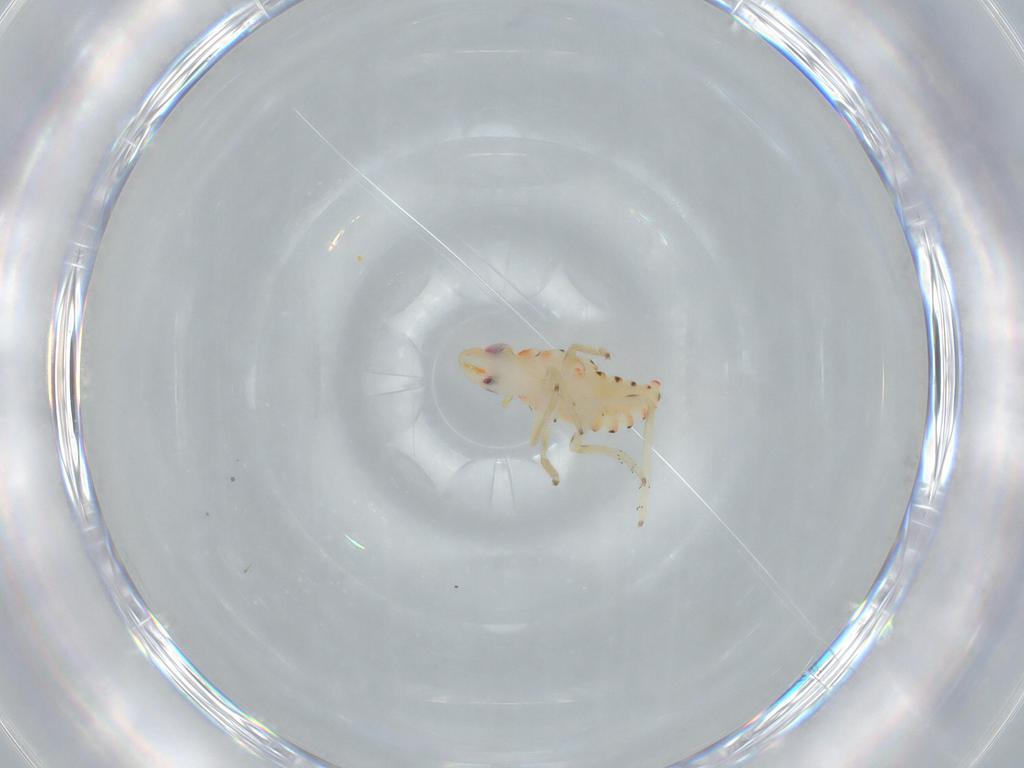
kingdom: Animalia
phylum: Arthropoda
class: Insecta
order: Hemiptera
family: Tropiduchidae
